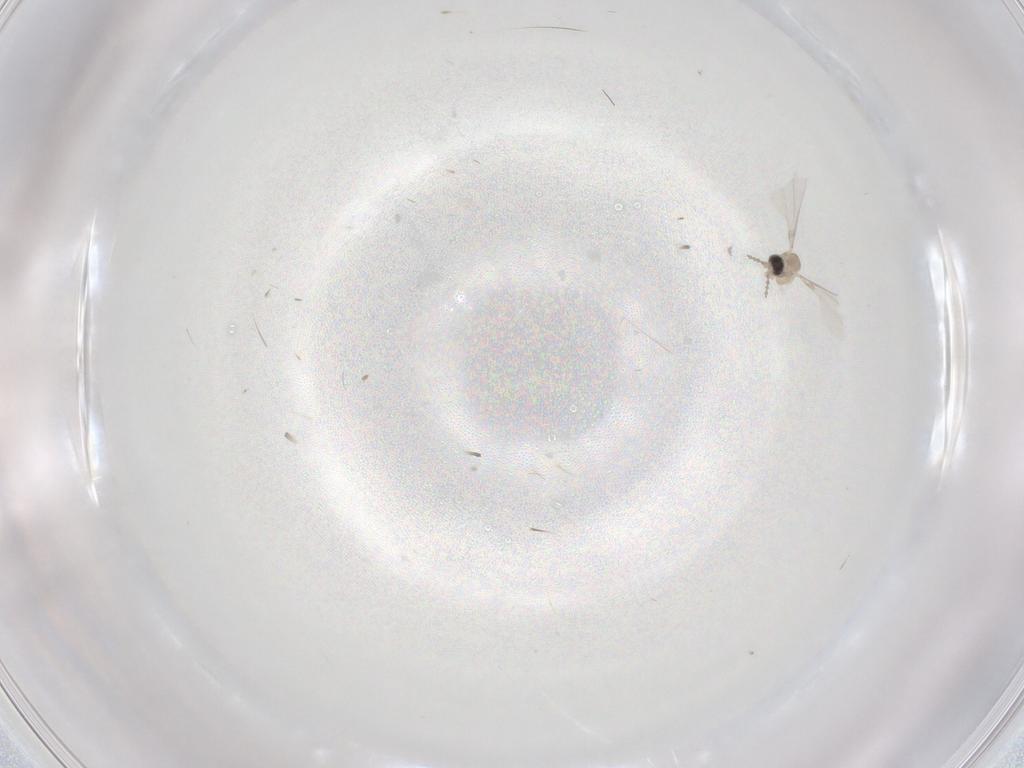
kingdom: Animalia
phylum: Arthropoda
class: Insecta
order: Diptera
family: Cecidomyiidae
